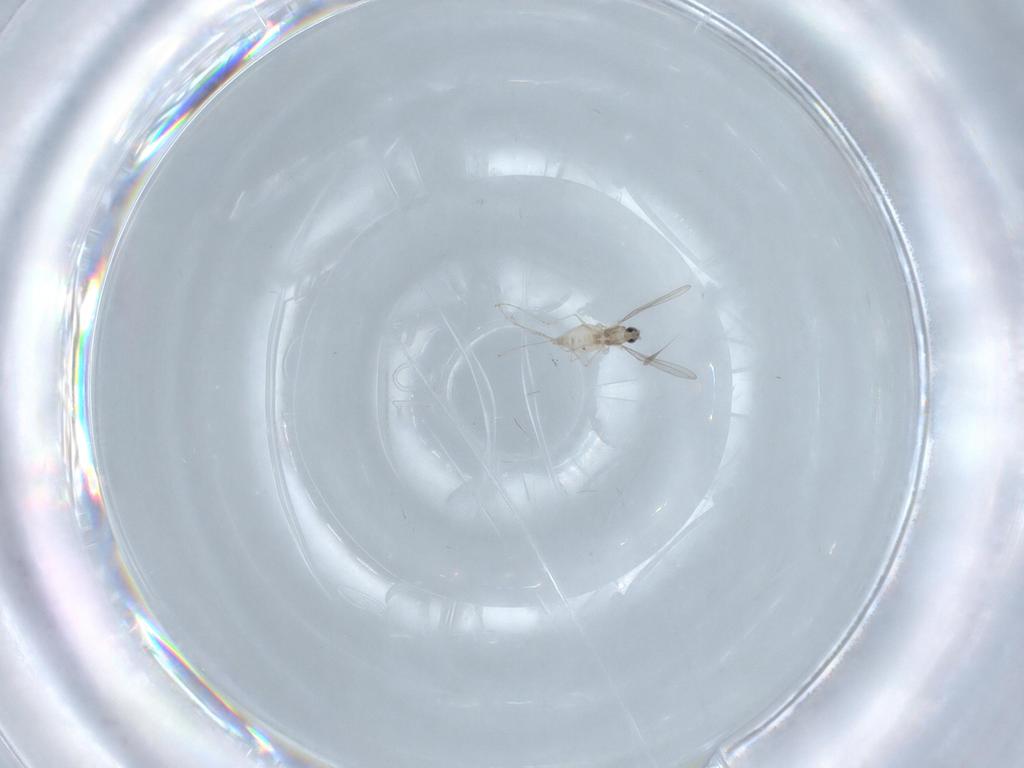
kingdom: Animalia
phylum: Arthropoda
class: Insecta
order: Diptera
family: Cecidomyiidae
